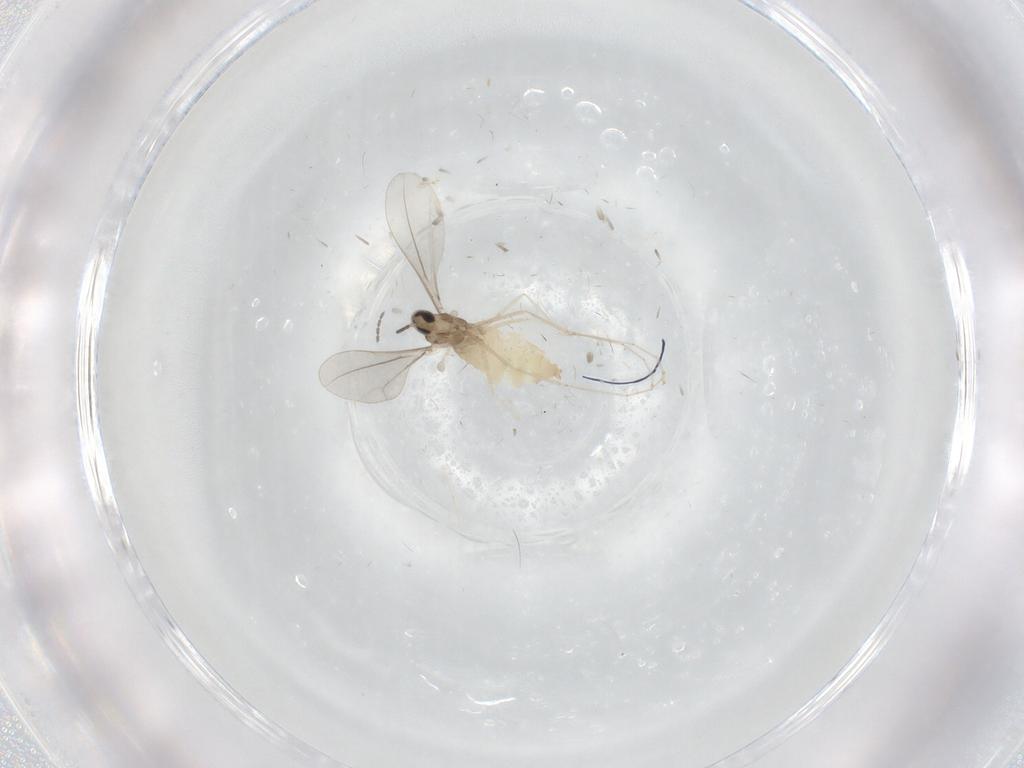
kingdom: Animalia
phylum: Arthropoda
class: Insecta
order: Diptera
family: Cecidomyiidae
